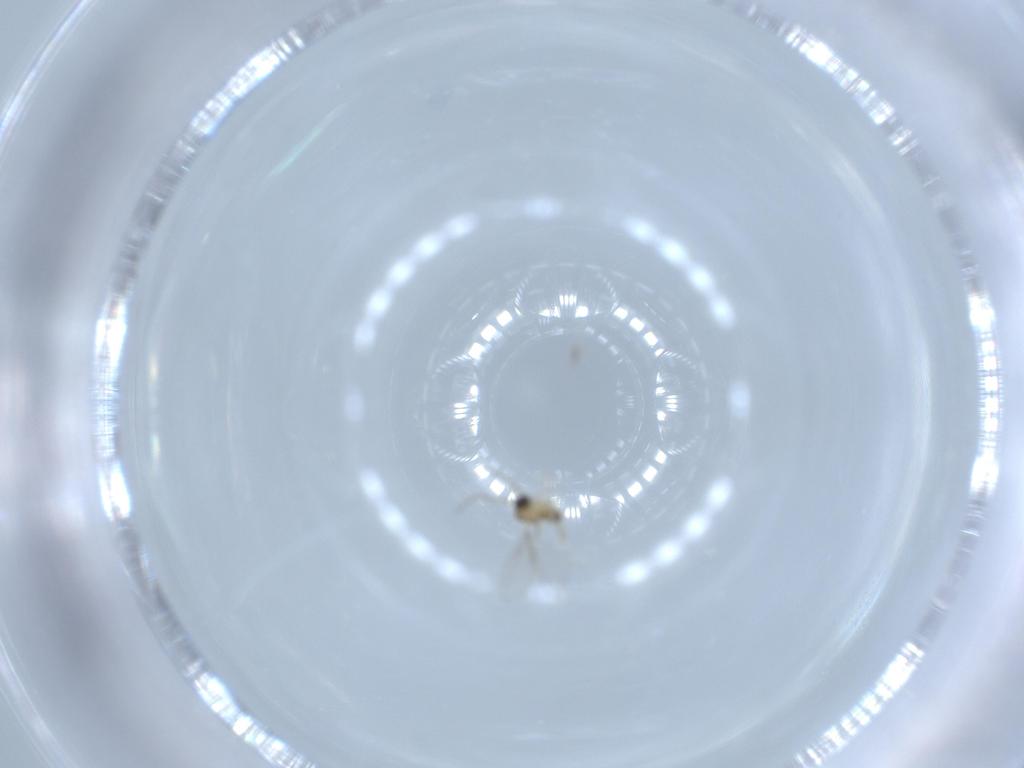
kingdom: Animalia
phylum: Arthropoda
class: Insecta
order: Diptera
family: Cecidomyiidae
